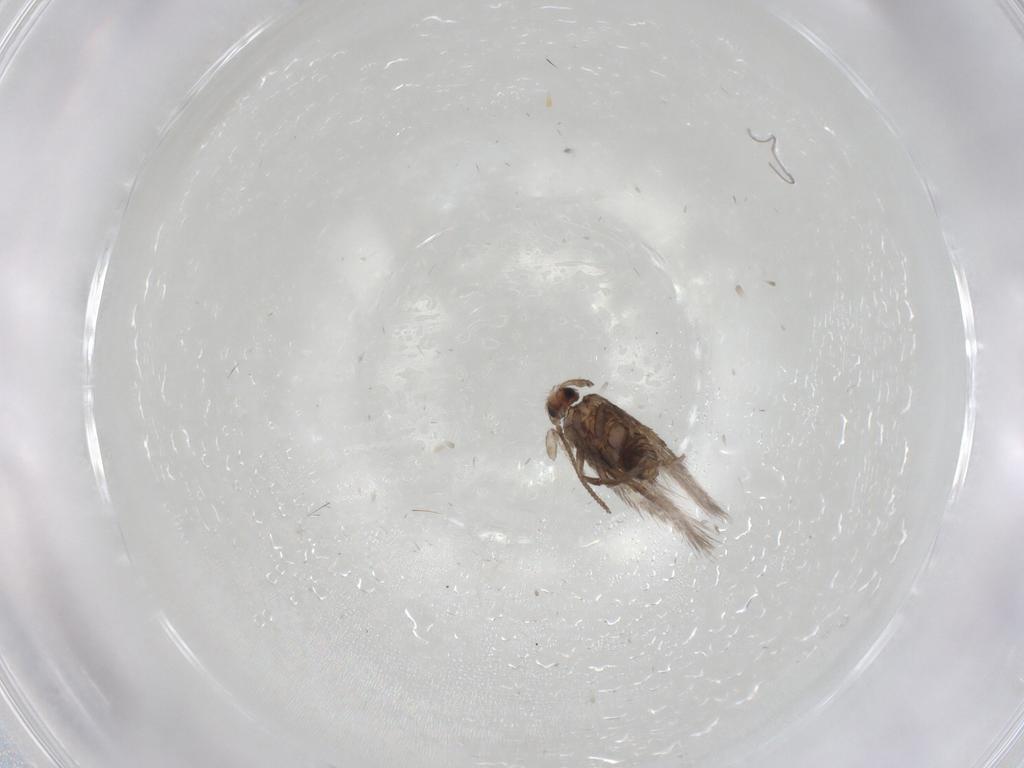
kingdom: Animalia
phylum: Arthropoda
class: Insecta
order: Lepidoptera
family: Nepticulidae
